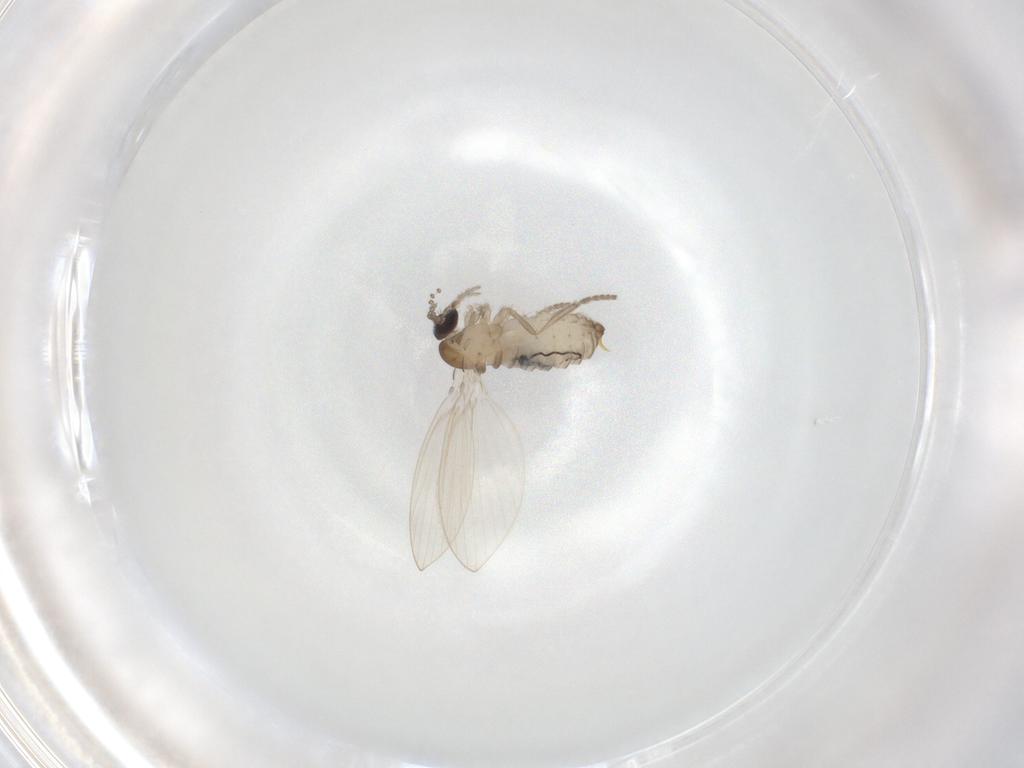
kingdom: Animalia
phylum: Arthropoda
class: Insecta
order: Diptera
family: Psychodidae
